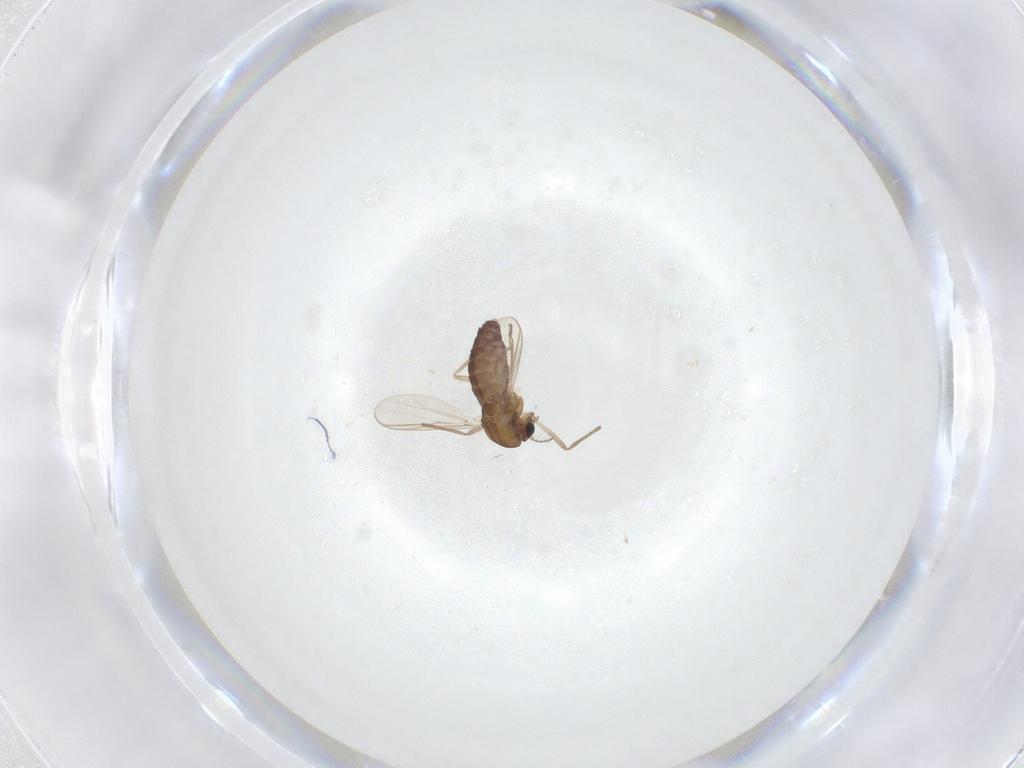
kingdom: Animalia
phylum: Arthropoda
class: Insecta
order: Diptera
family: Chironomidae
